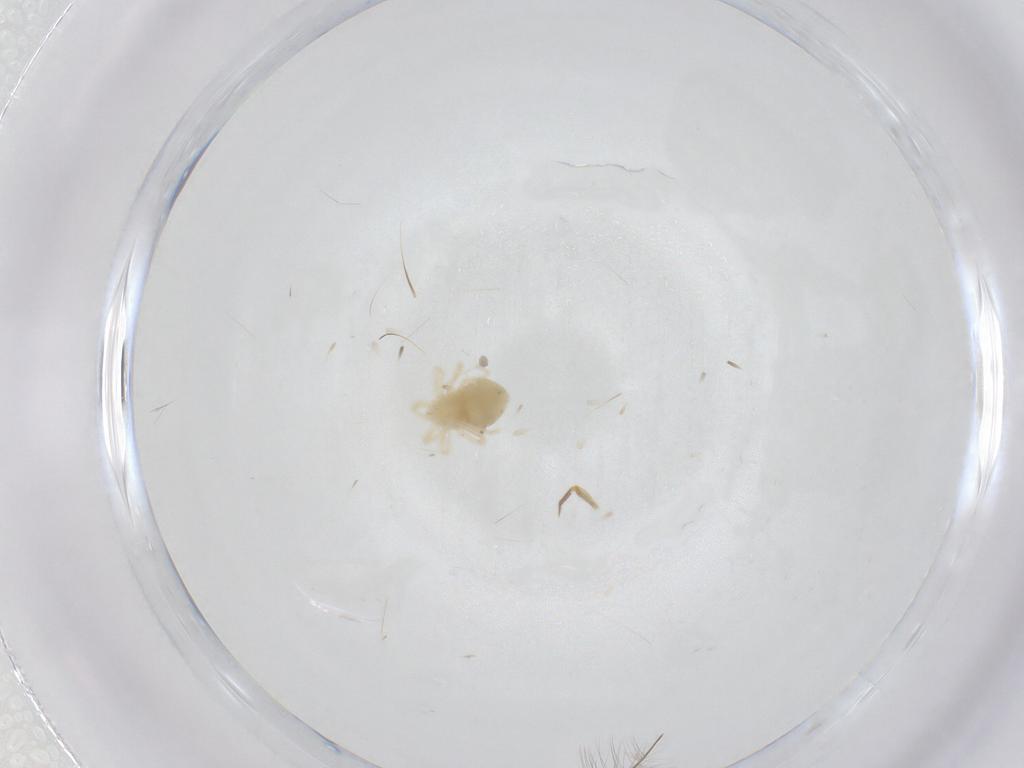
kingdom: Animalia
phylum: Arthropoda
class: Arachnida
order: Trombidiformes
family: Anystidae
